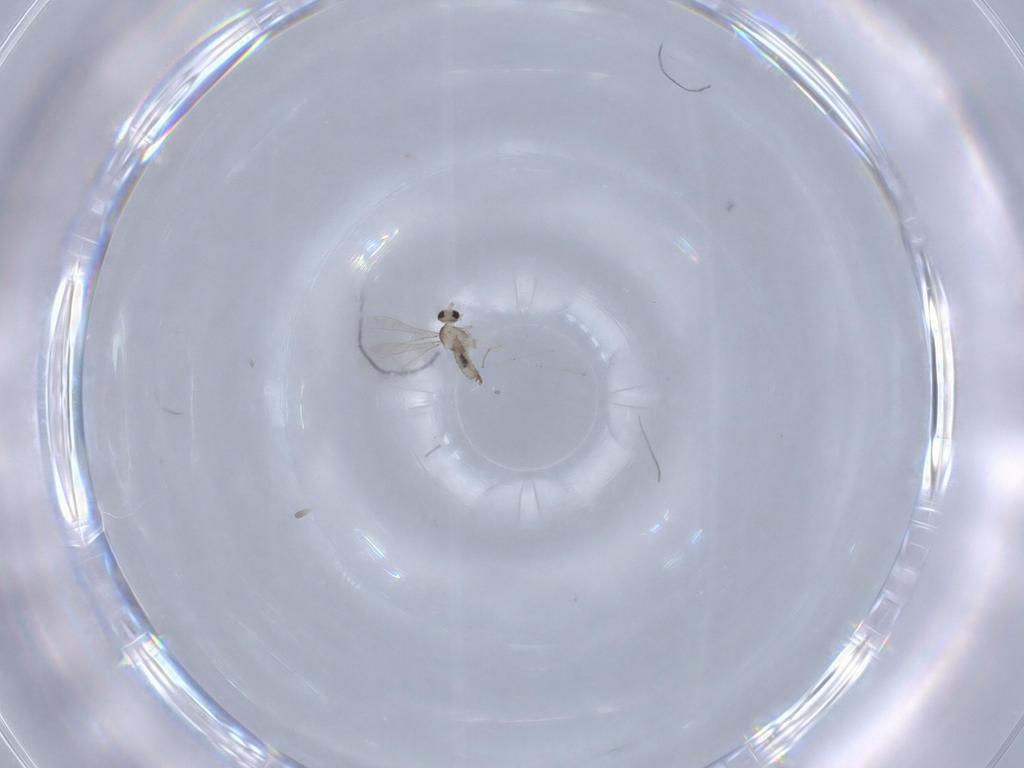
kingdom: Animalia
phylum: Arthropoda
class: Insecta
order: Diptera
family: Cecidomyiidae
